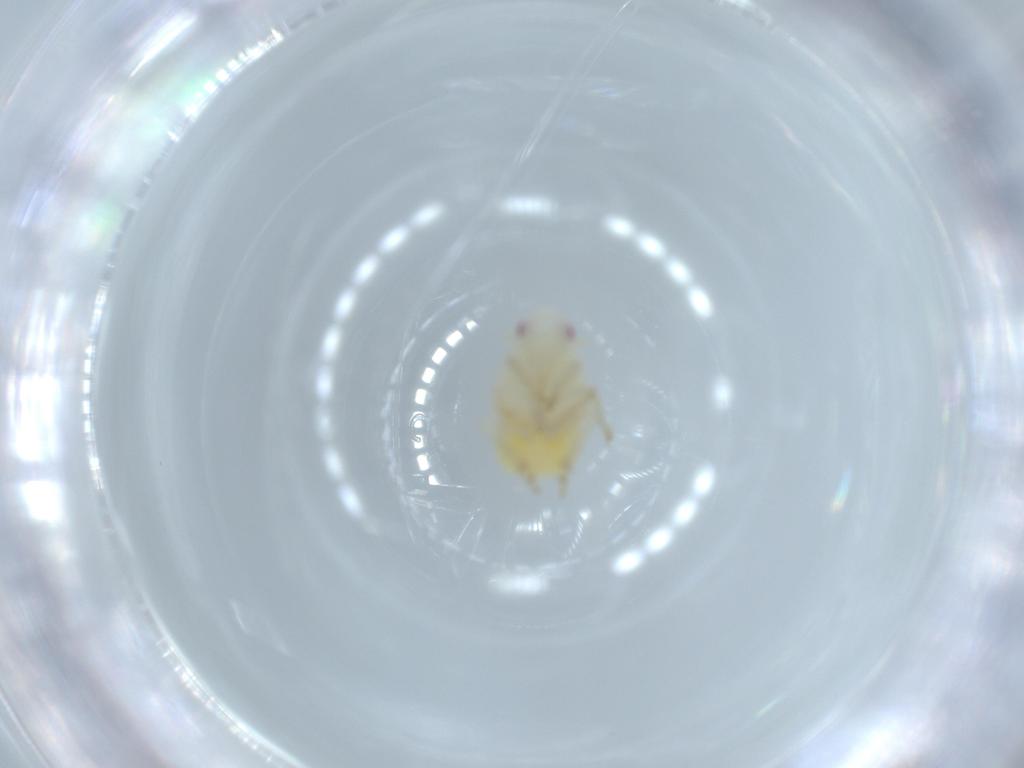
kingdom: Animalia
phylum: Arthropoda
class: Insecta
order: Hemiptera
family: Flatidae
